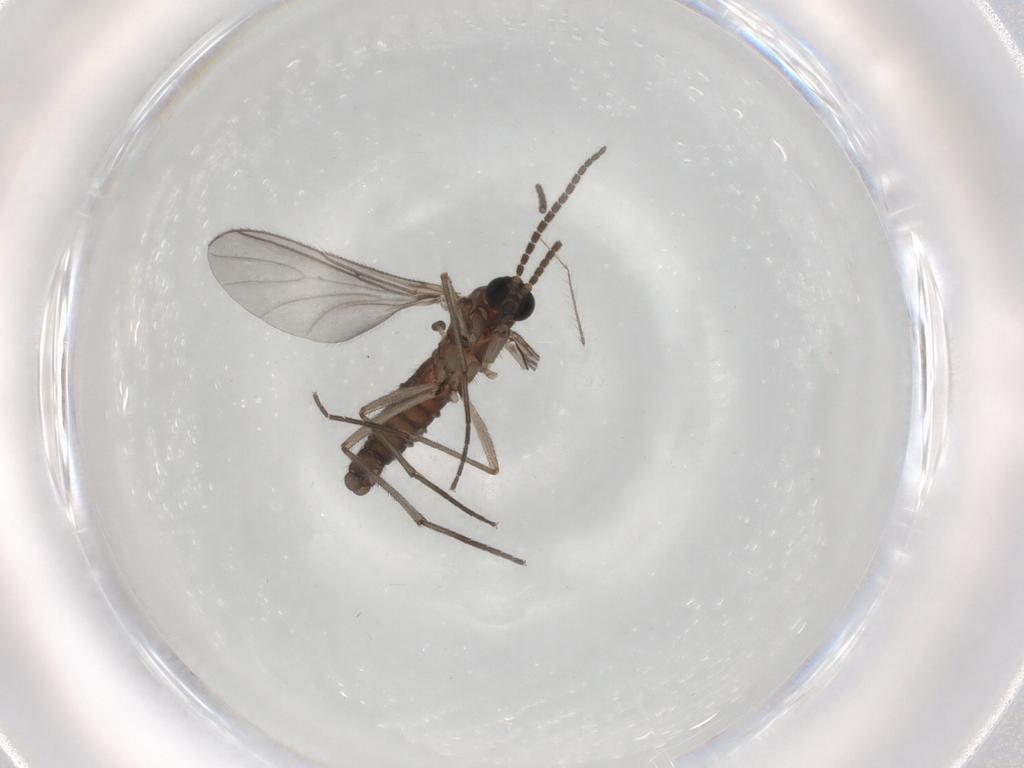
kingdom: Animalia
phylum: Arthropoda
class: Insecta
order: Diptera
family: Sciaridae
